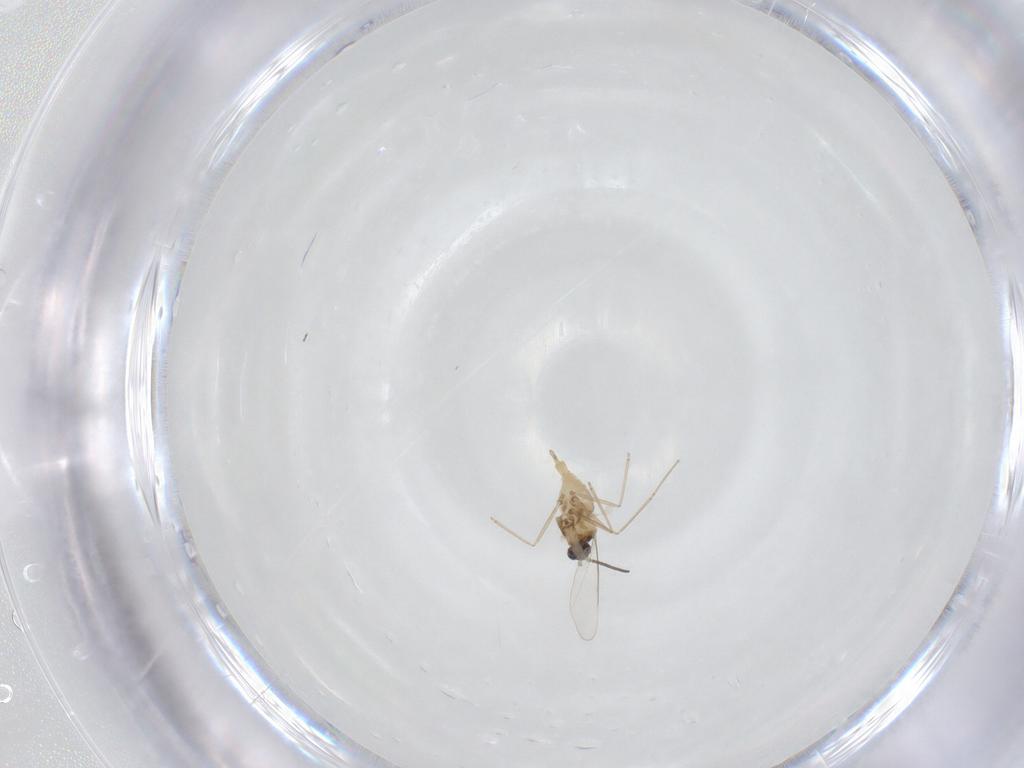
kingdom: Animalia
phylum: Arthropoda
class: Insecta
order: Diptera
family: Cecidomyiidae
